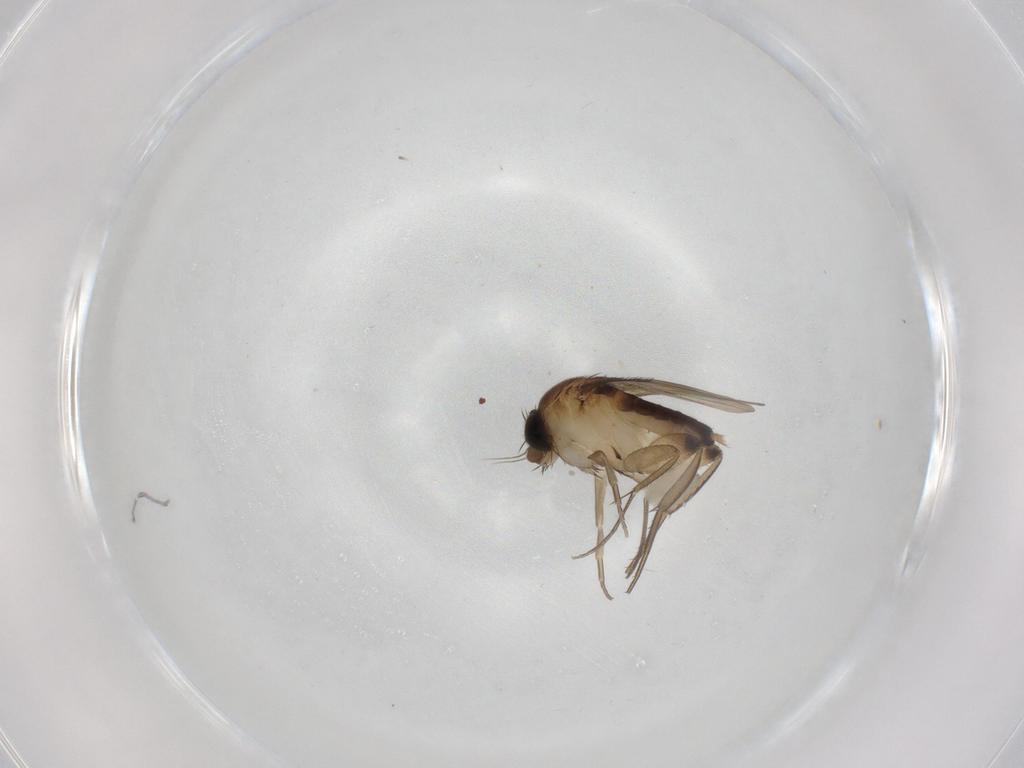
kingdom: Animalia
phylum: Arthropoda
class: Insecta
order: Diptera
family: Phoridae
